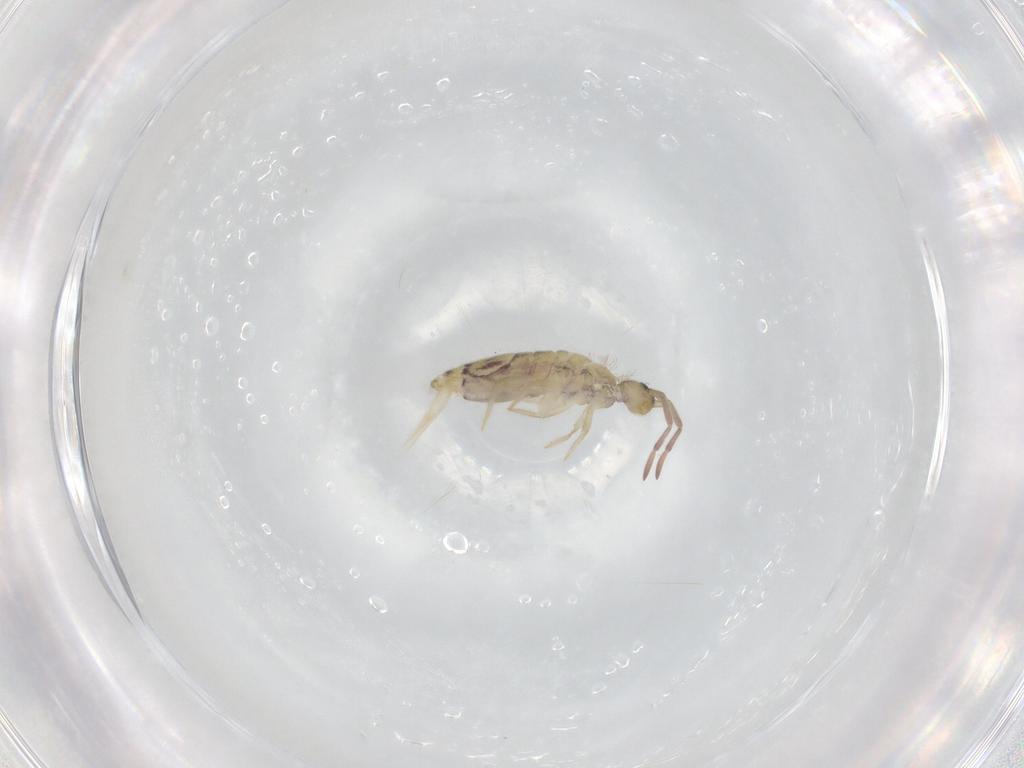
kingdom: Animalia
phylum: Arthropoda
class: Collembola
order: Entomobryomorpha
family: Entomobryidae
